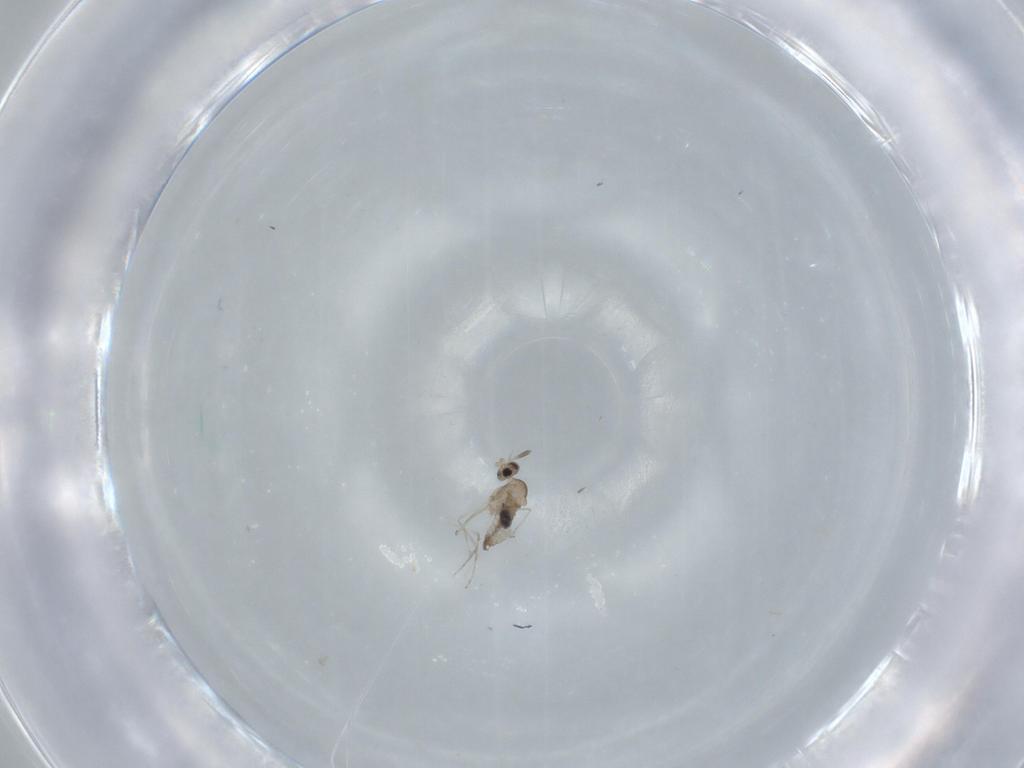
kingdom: Animalia
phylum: Arthropoda
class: Insecta
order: Diptera
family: Cecidomyiidae
